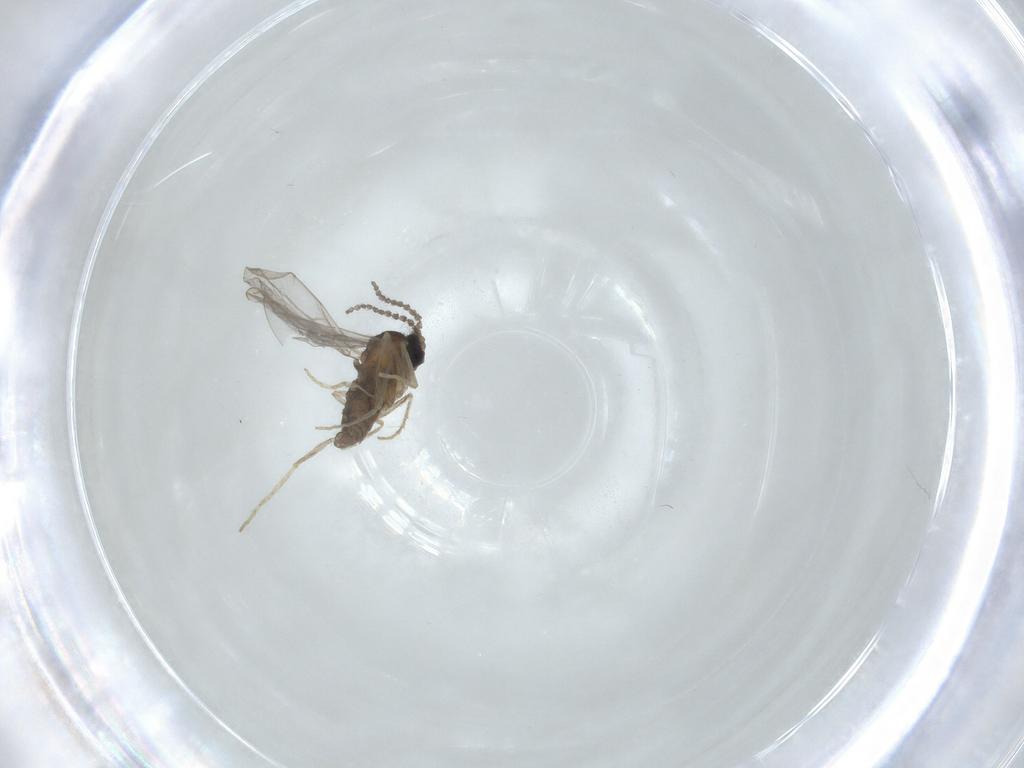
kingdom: Animalia
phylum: Arthropoda
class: Insecta
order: Diptera
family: Cecidomyiidae
